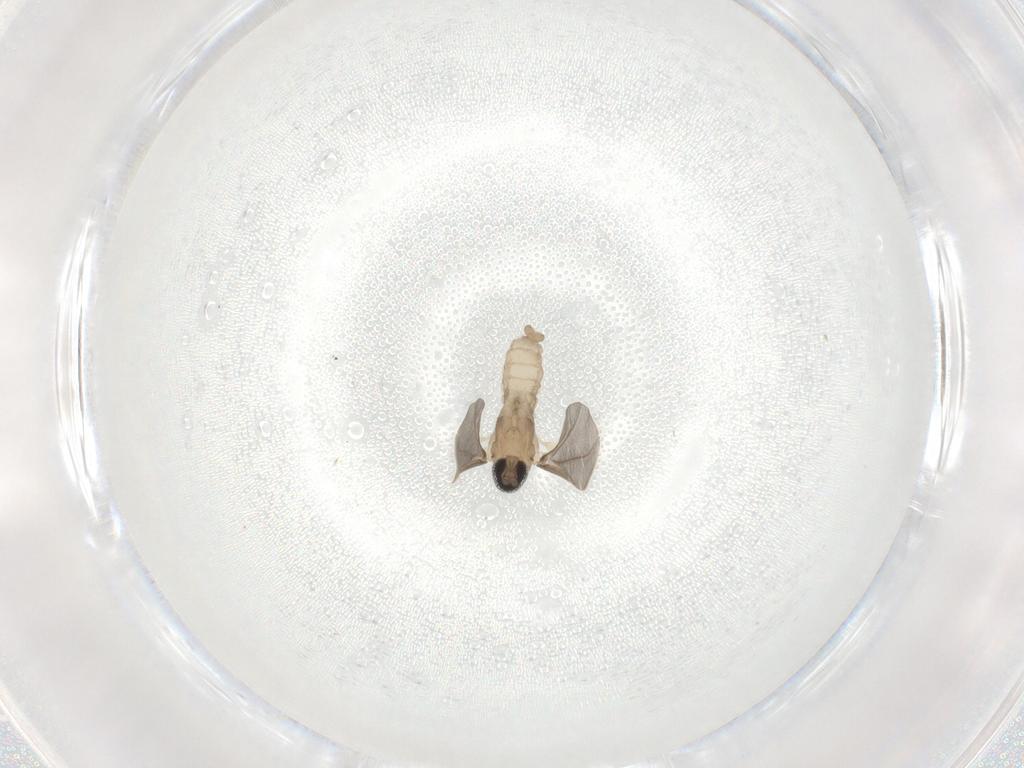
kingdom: Animalia
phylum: Arthropoda
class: Insecta
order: Diptera
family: Cecidomyiidae
